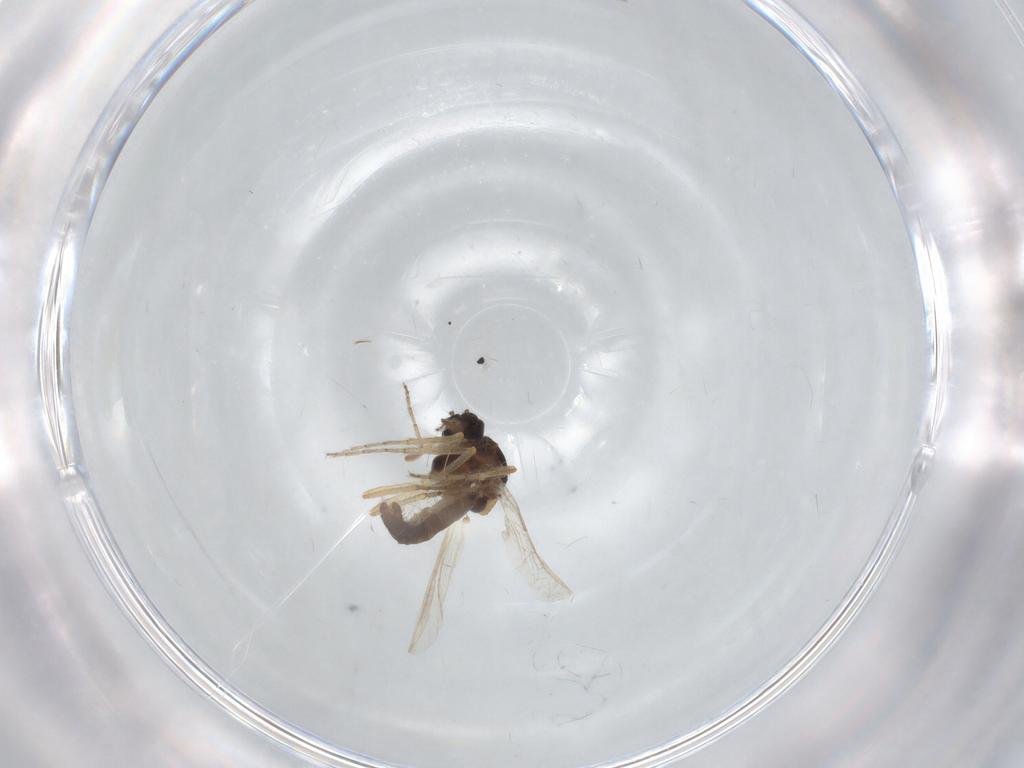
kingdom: Animalia
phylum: Arthropoda
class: Insecta
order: Diptera
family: Ceratopogonidae
